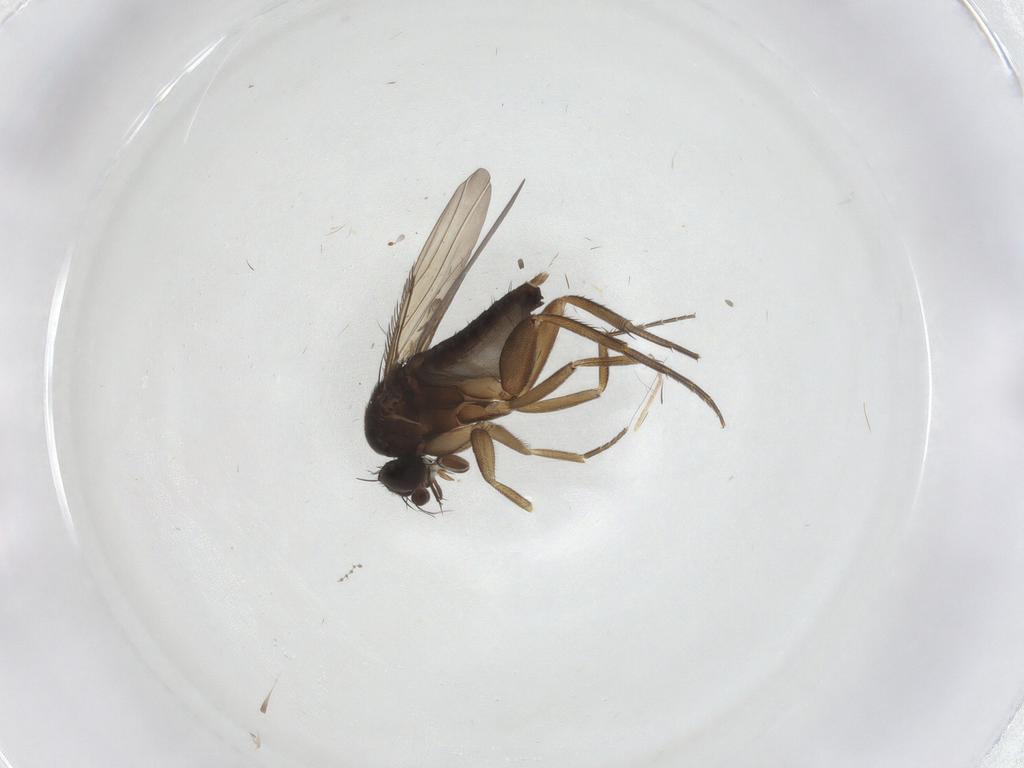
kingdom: Animalia
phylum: Arthropoda
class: Insecta
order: Diptera
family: Phoridae
